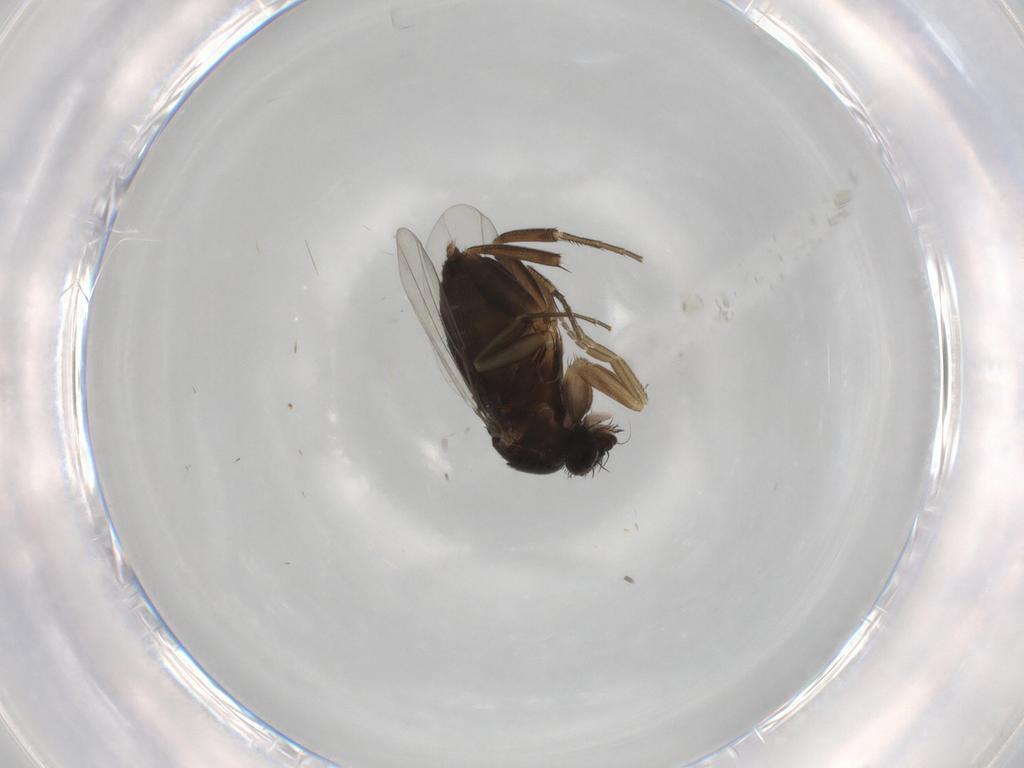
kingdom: Animalia
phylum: Arthropoda
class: Insecta
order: Diptera
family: Phoridae
